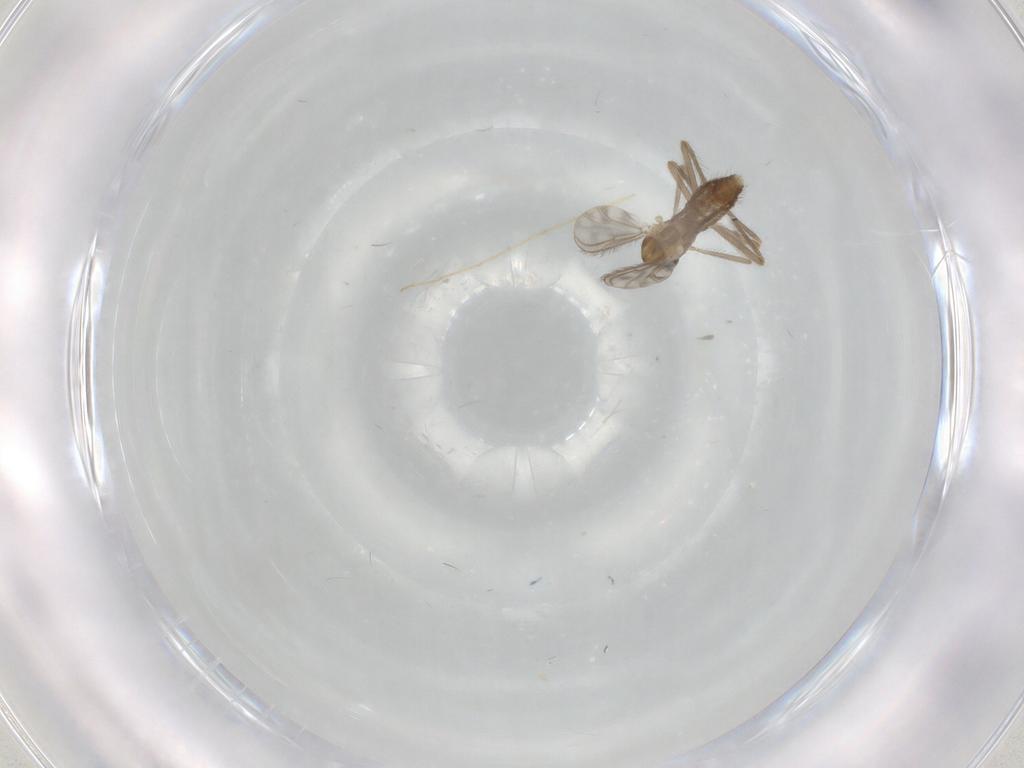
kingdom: Animalia
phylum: Arthropoda
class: Insecta
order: Diptera
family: Chironomidae
